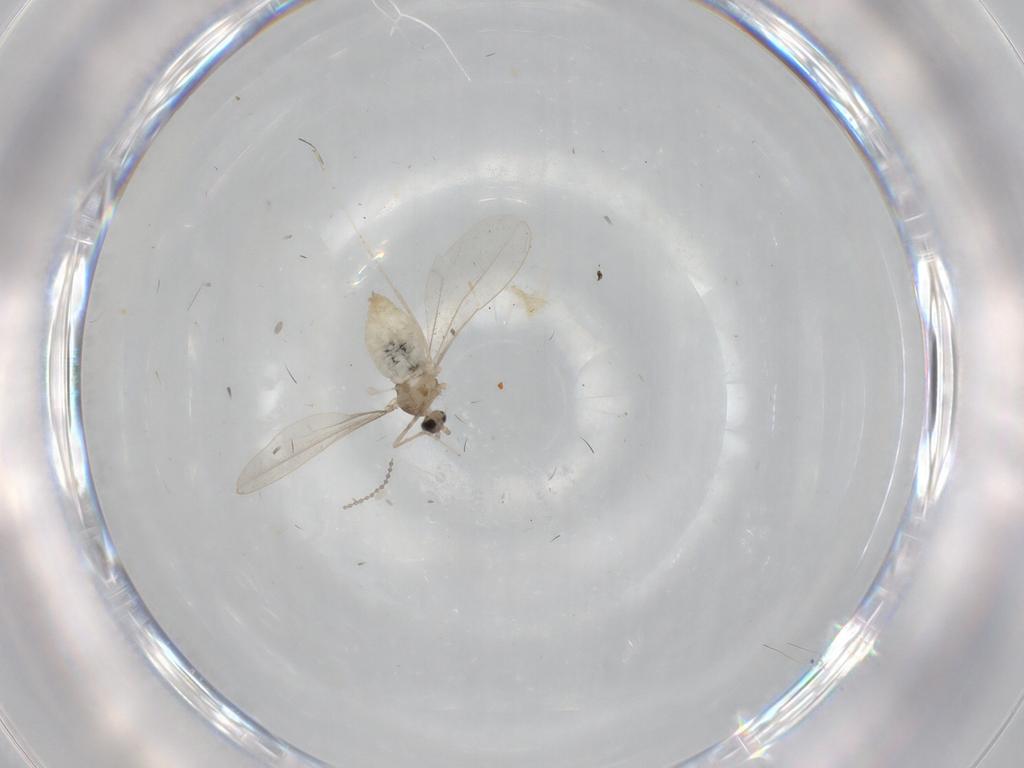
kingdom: Animalia
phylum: Arthropoda
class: Insecta
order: Diptera
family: Cecidomyiidae
